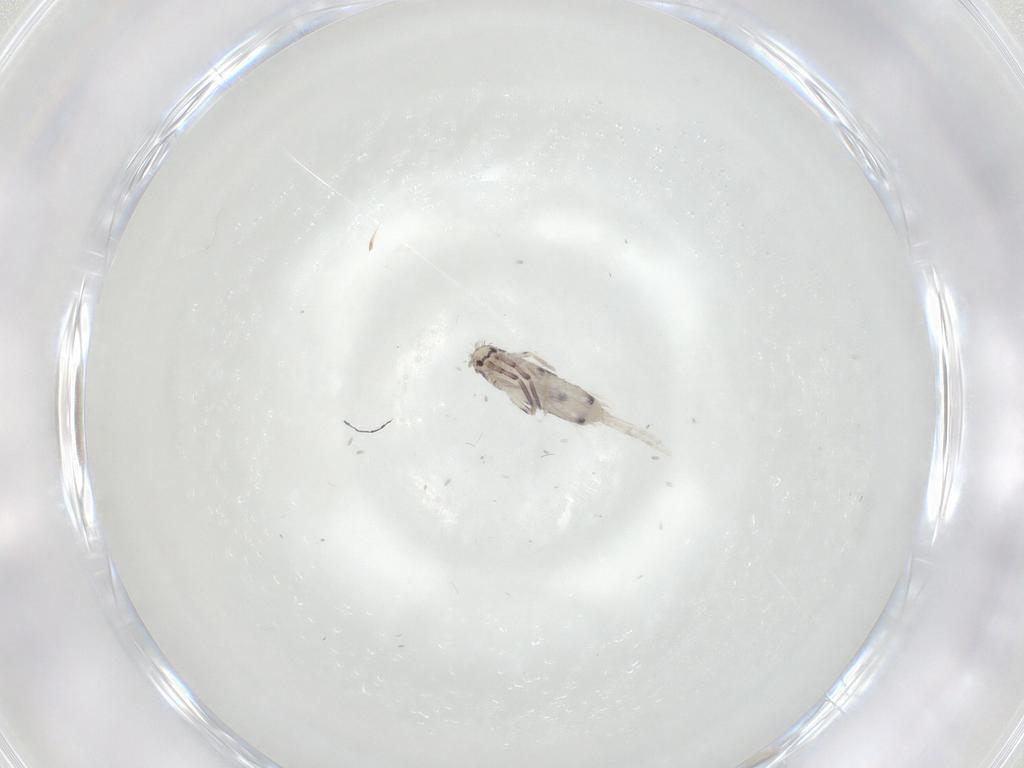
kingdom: Animalia
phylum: Arthropoda
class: Collembola
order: Entomobryomorpha
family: Entomobryidae
